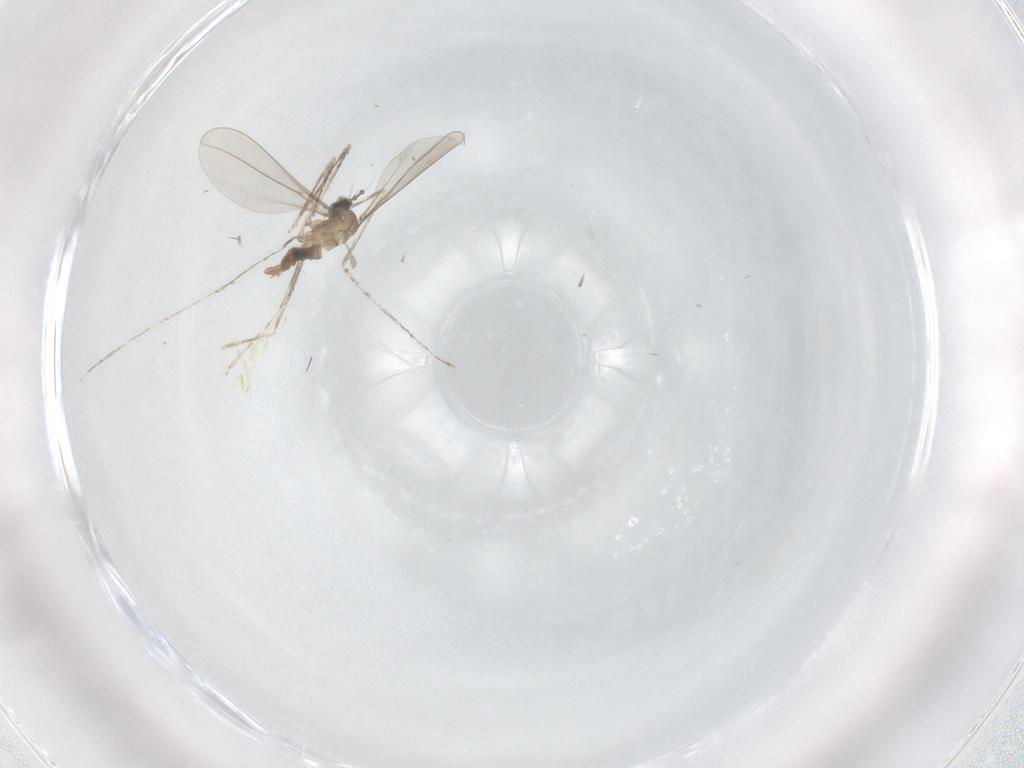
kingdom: Animalia
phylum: Arthropoda
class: Insecta
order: Diptera
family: Cecidomyiidae
